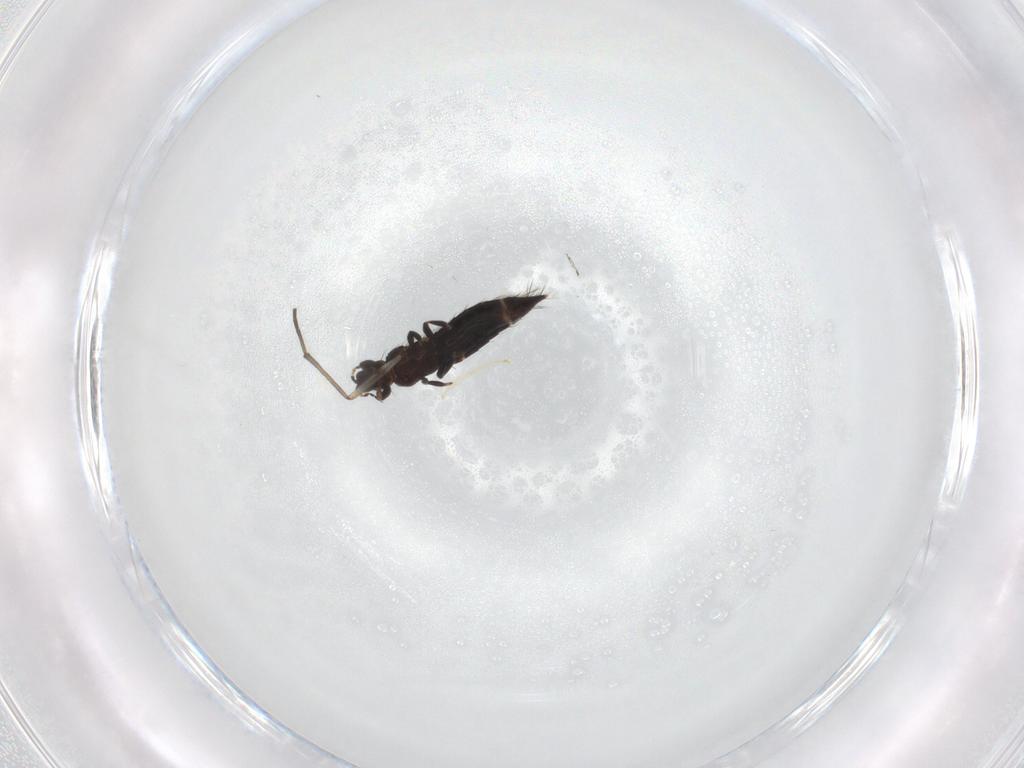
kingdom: Animalia
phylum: Arthropoda
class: Insecta
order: Thysanoptera
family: Thripidae
